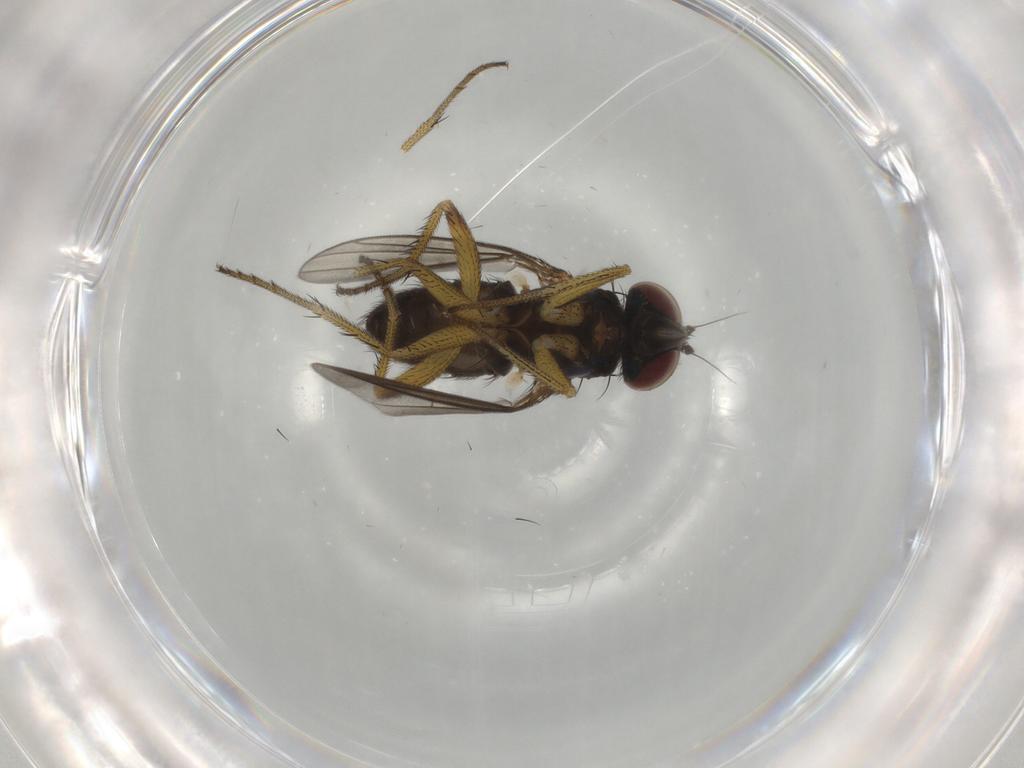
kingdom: Animalia
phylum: Arthropoda
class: Insecta
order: Diptera
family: Dolichopodidae
